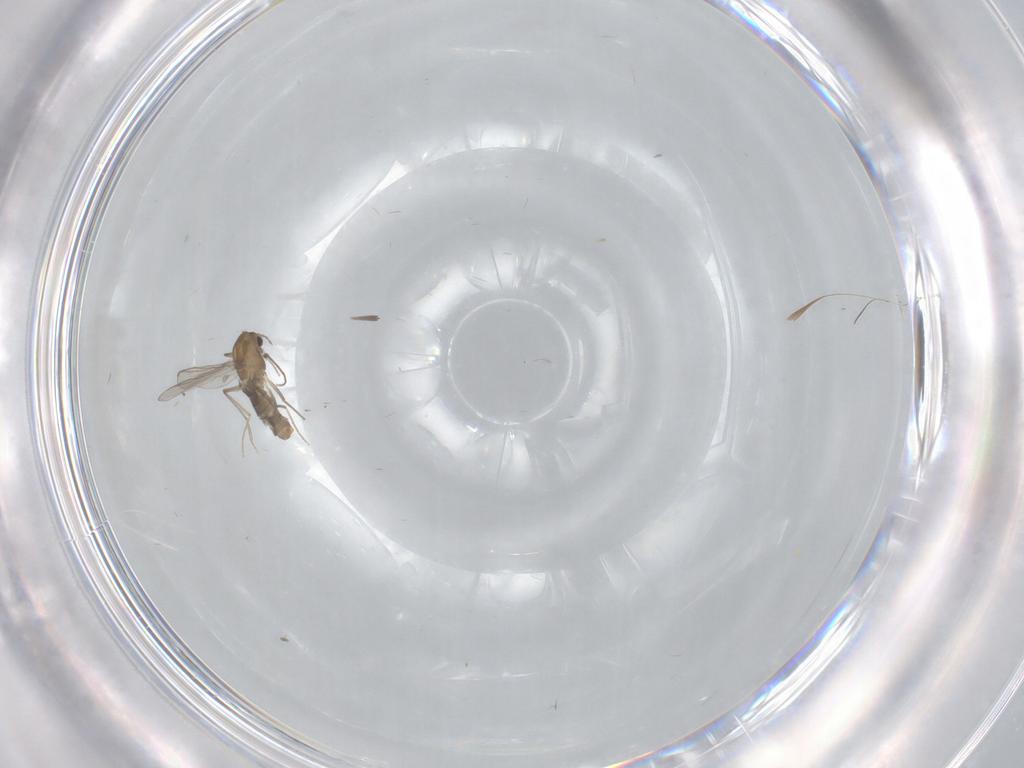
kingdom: Animalia
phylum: Arthropoda
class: Insecta
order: Diptera
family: Chironomidae
